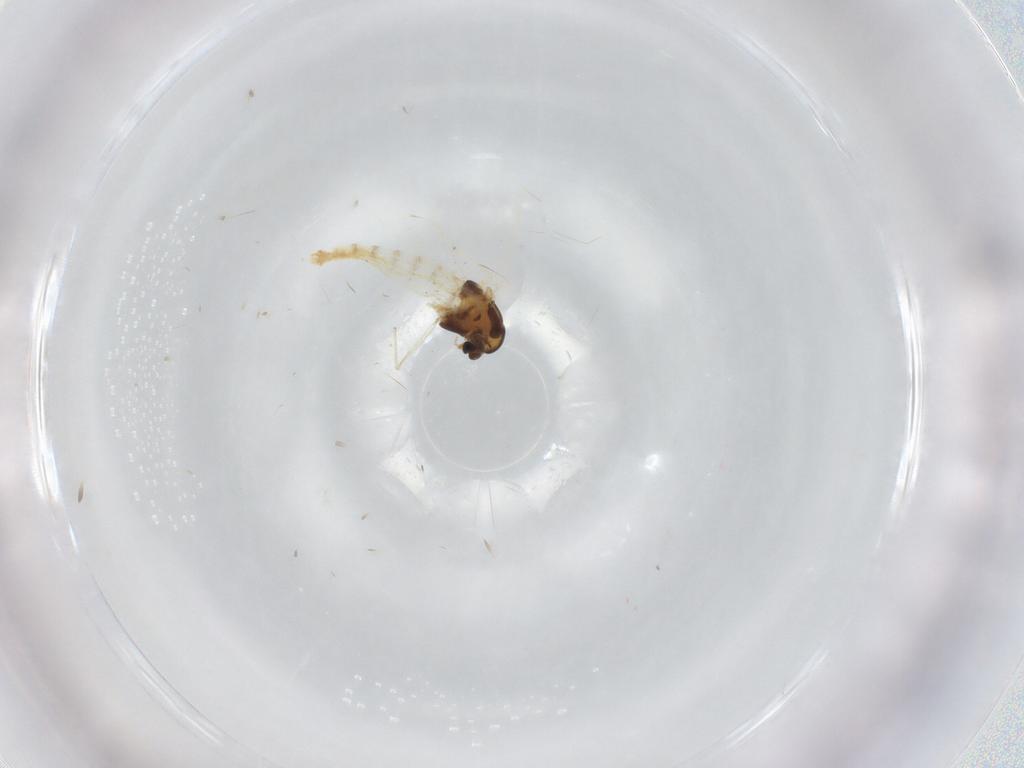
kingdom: Animalia
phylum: Arthropoda
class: Insecta
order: Diptera
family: Chironomidae
